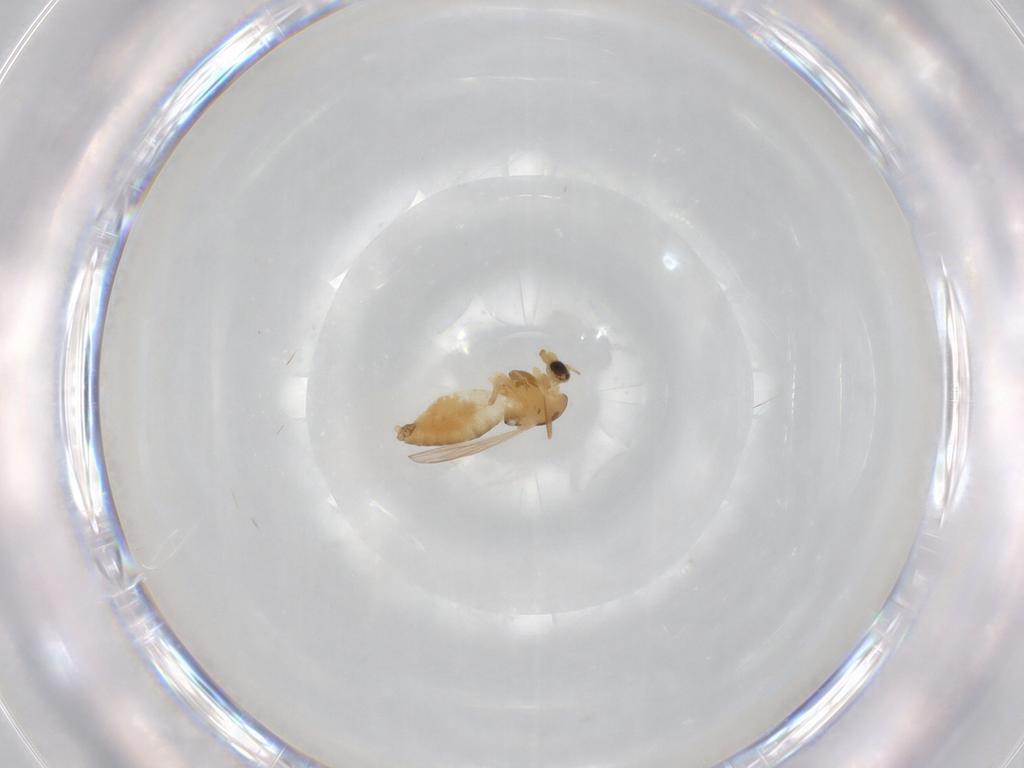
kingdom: Animalia
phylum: Arthropoda
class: Insecta
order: Diptera
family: Chironomidae
